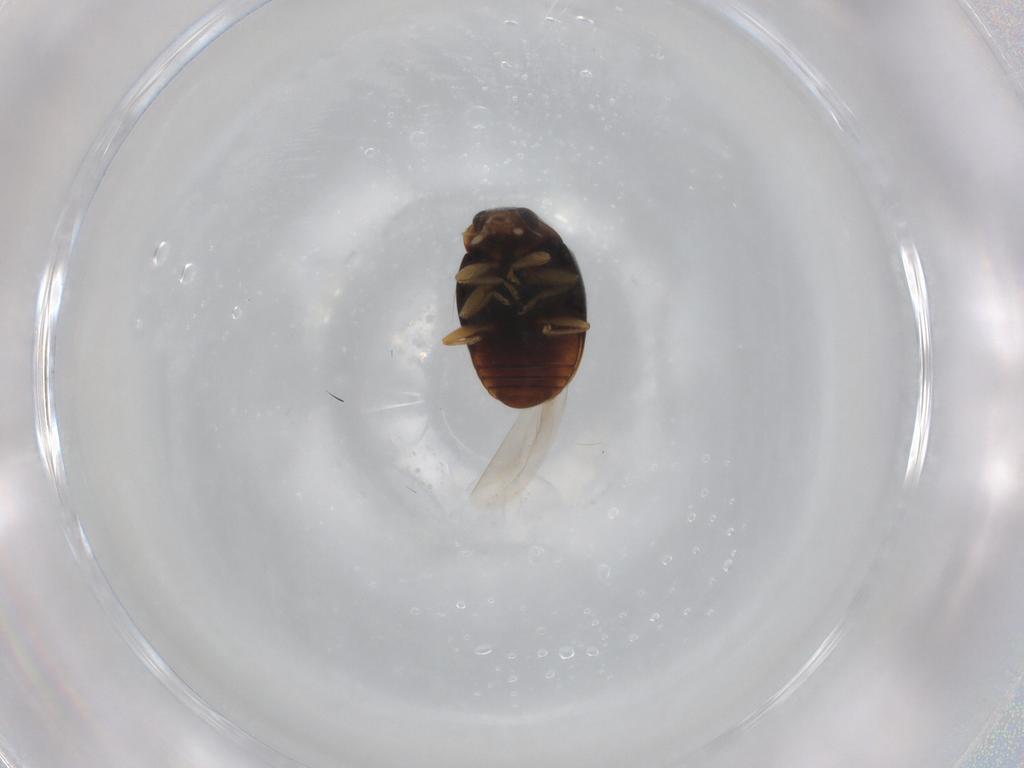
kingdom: Animalia
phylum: Arthropoda
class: Insecta
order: Coleoptera
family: Coccinellidae
